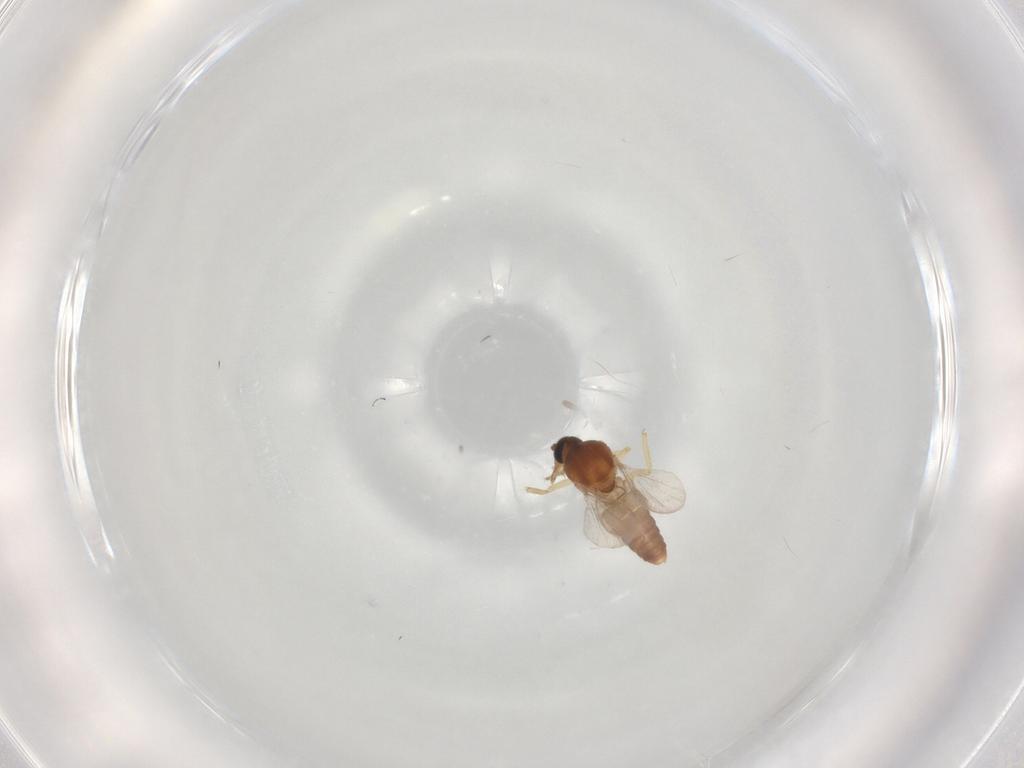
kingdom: Animalia
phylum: Arthropoda
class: Insecta
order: Diptera
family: Ceratopogonidae
